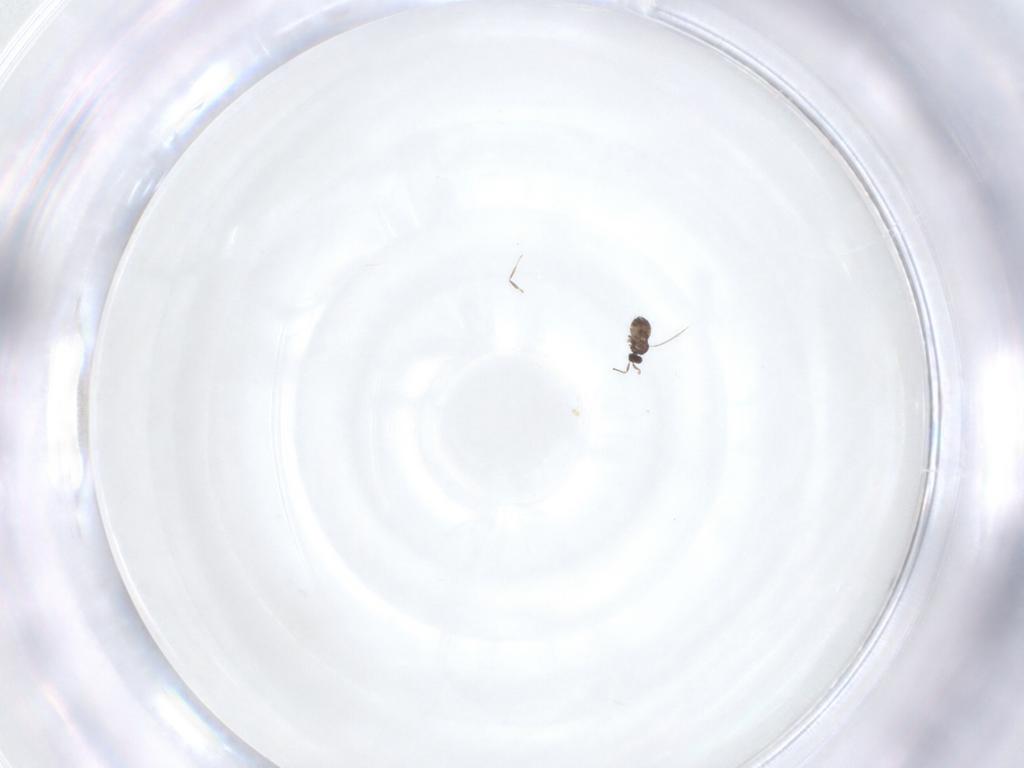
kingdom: Animalia
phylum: Arthropoda
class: Insecta
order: Hymenoptera
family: Mymaridae
